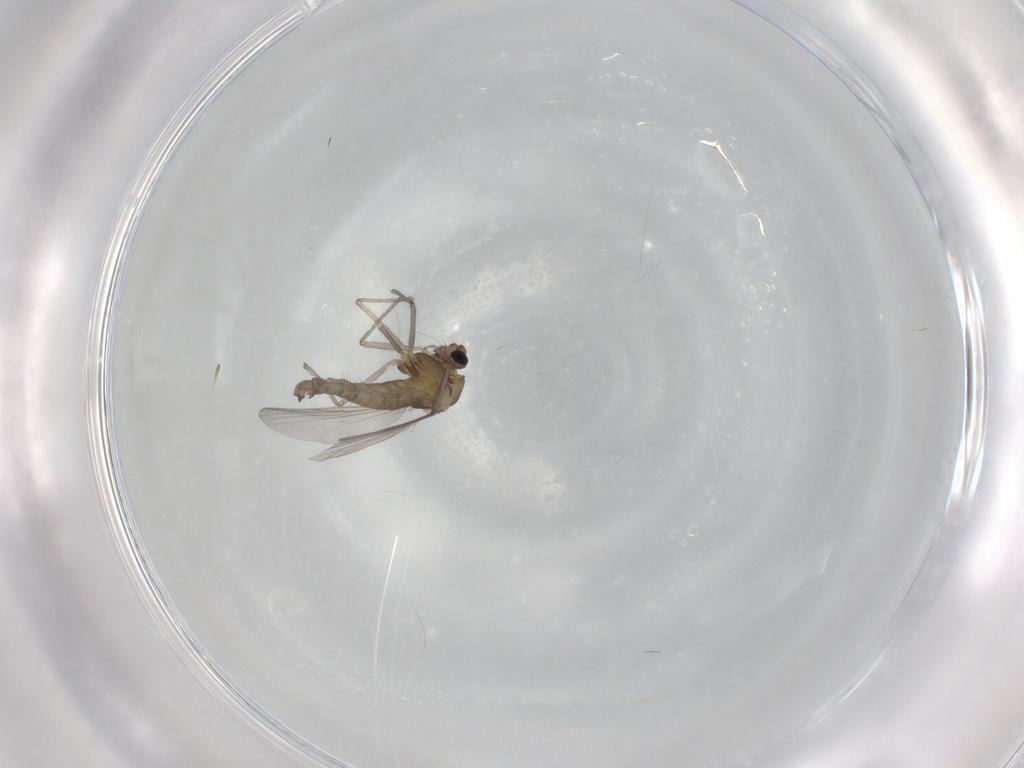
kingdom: Animalia
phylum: Arthropoda
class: Insecta
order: Diptera
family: Chironomidae
